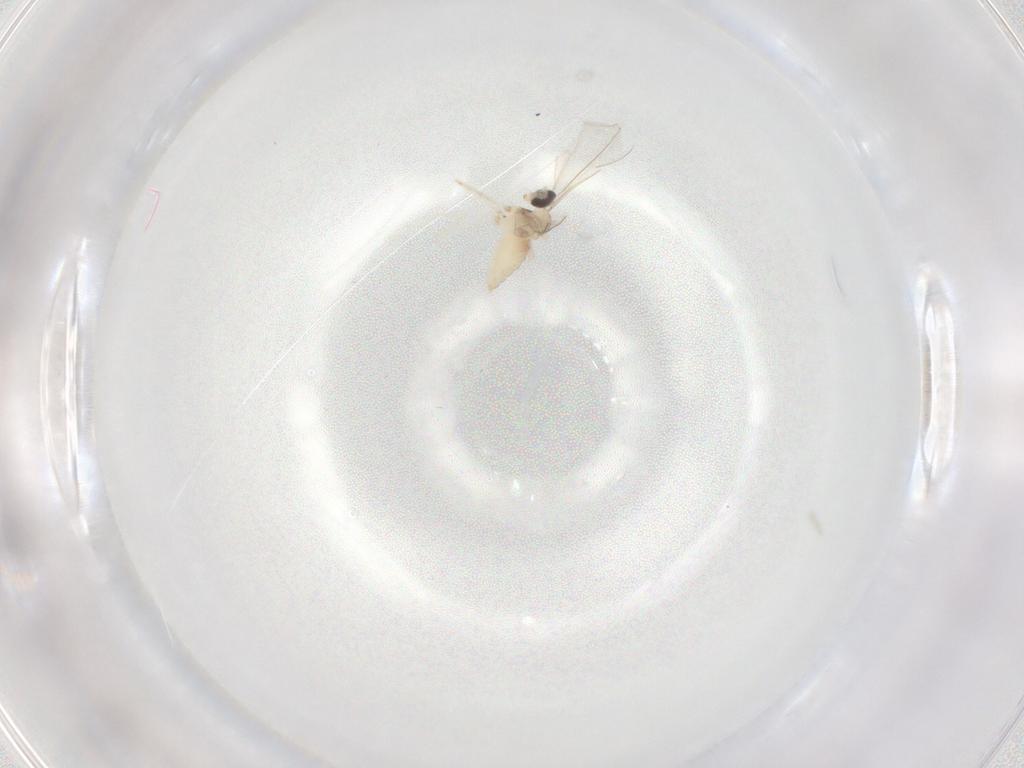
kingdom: Animalia
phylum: Arthropoda
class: Insecta
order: Diptera
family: Cecidomyiidae
